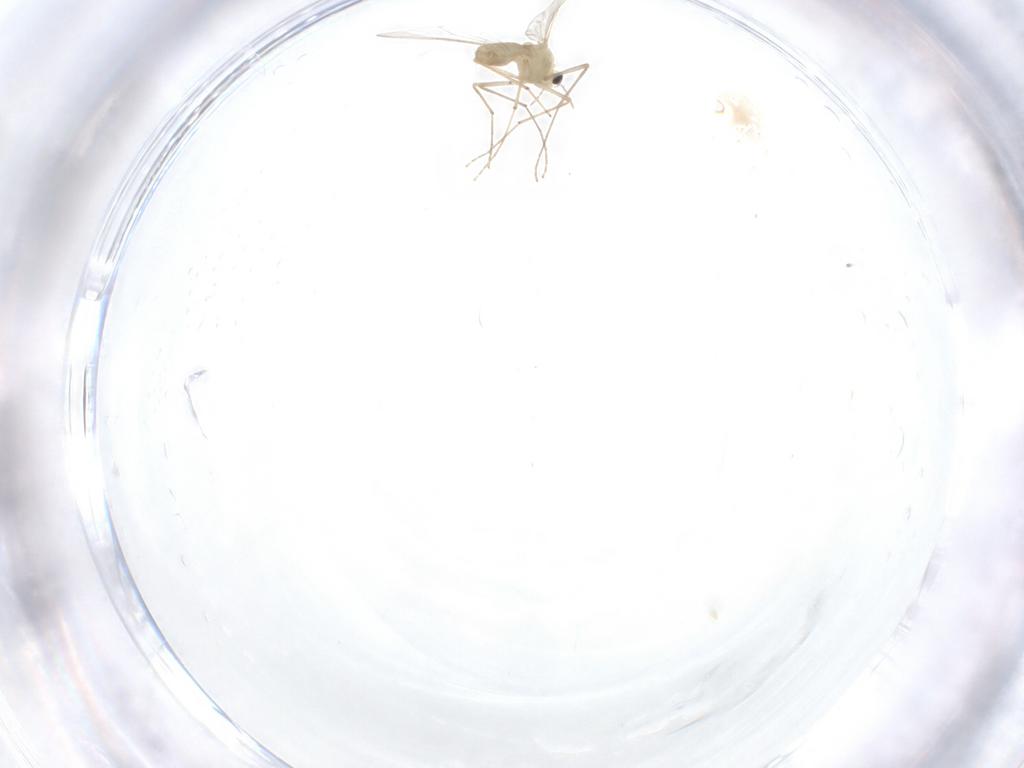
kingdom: Animalia
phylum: Arthropoda
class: Insecta
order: Diptera
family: Chironomidae
